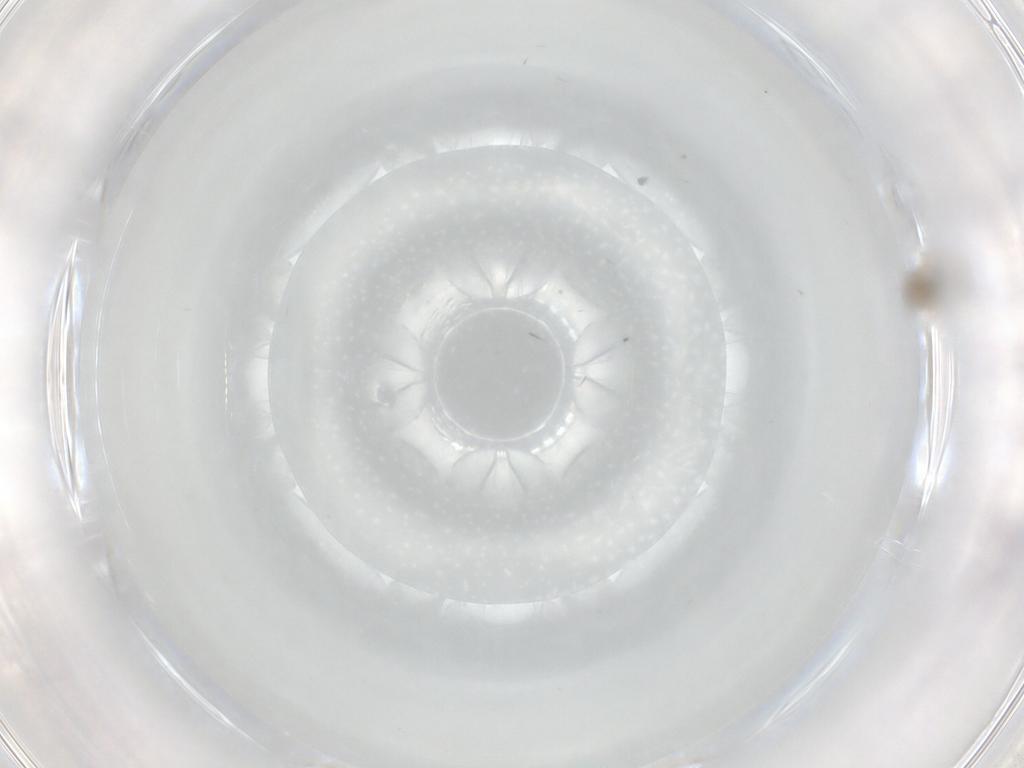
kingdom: Animalia
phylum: Arthropoda
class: Insecta
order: Diptera
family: Cecidomyiidae
